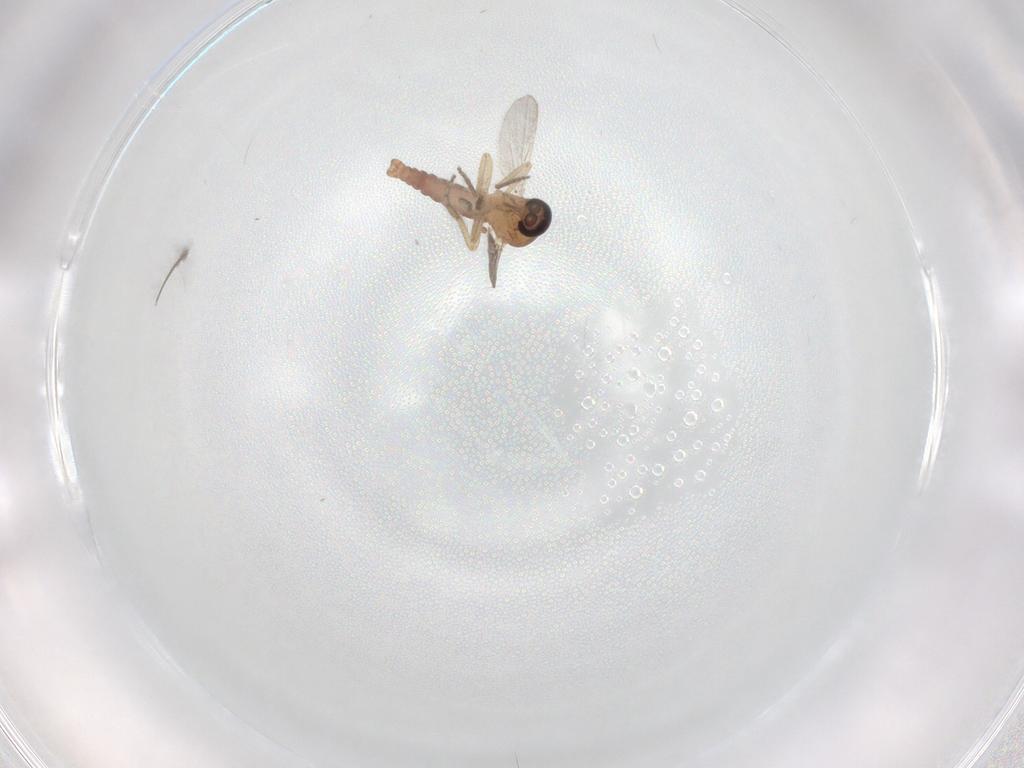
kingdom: Animalia
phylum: Arthropoda
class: Insecta
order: Diptera
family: Ceratopogonidae
